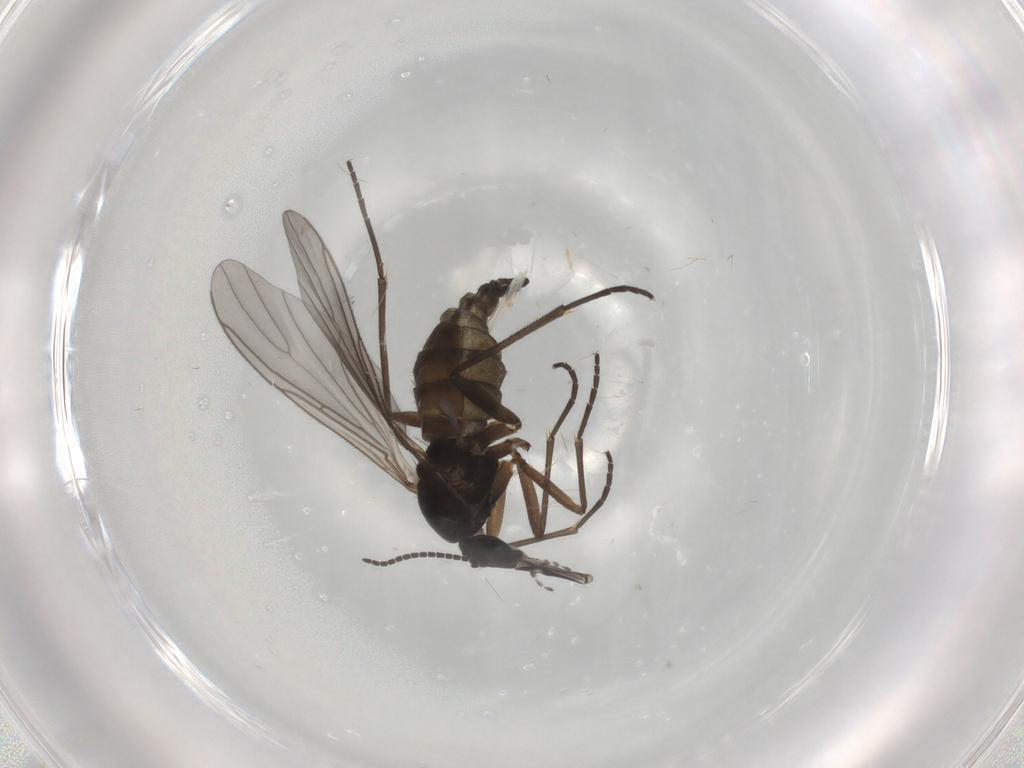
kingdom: Animalia
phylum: Arthropoda
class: Insecta
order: Diptera
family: Sciaridae
